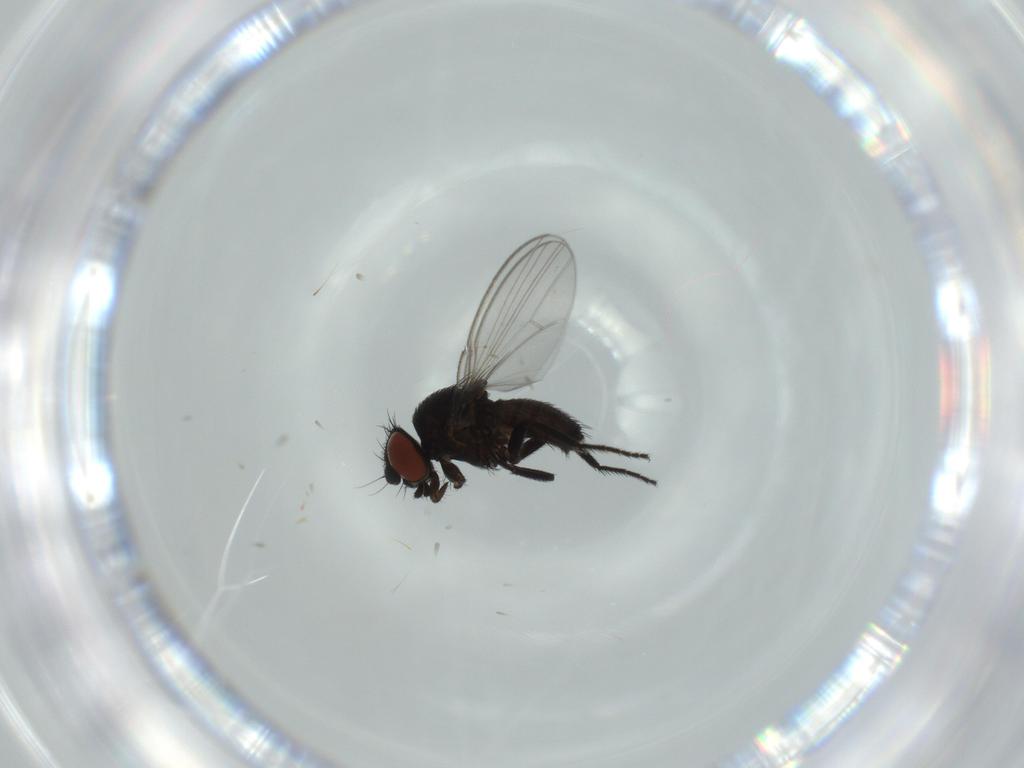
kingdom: Animalia
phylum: Arthropoda
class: Insecta
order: Diptera
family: Milichiidae
